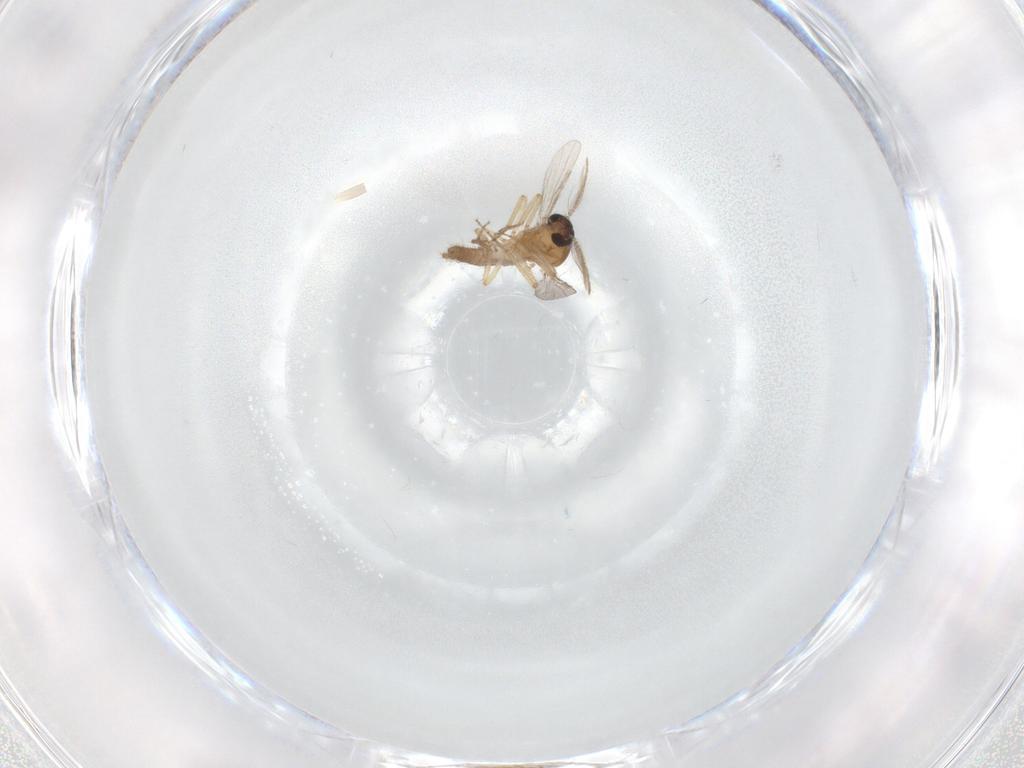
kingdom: Animalia
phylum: Arthropoda
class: Insecta
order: Diptera
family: Ceratopogonidae
